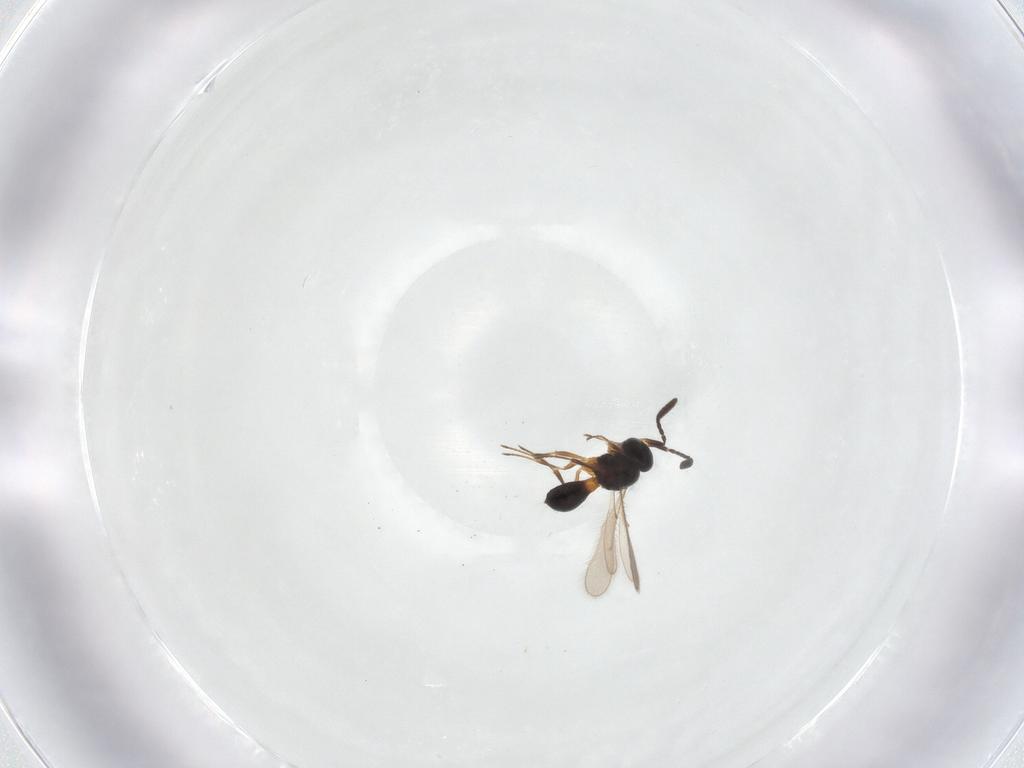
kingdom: Animalia
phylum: Arthropoda
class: Insecta
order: Hymenoptera
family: Scelionidae
